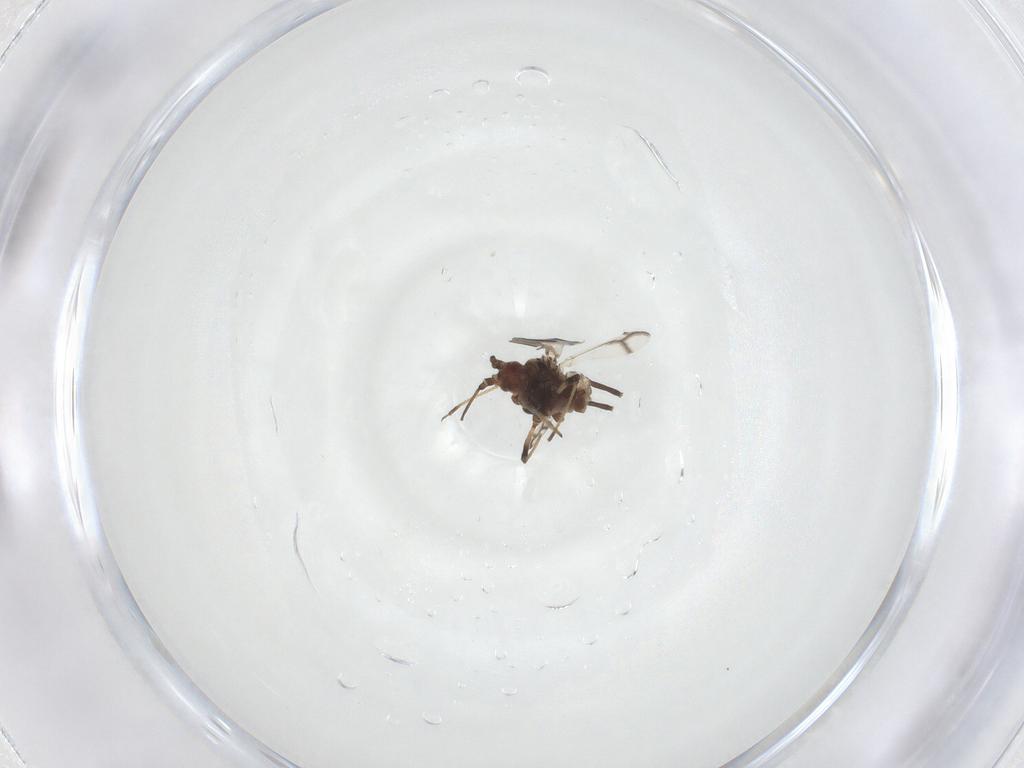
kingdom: Animalia
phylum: Arthropoda
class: Insecta
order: Hemiptera
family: Aphididae
